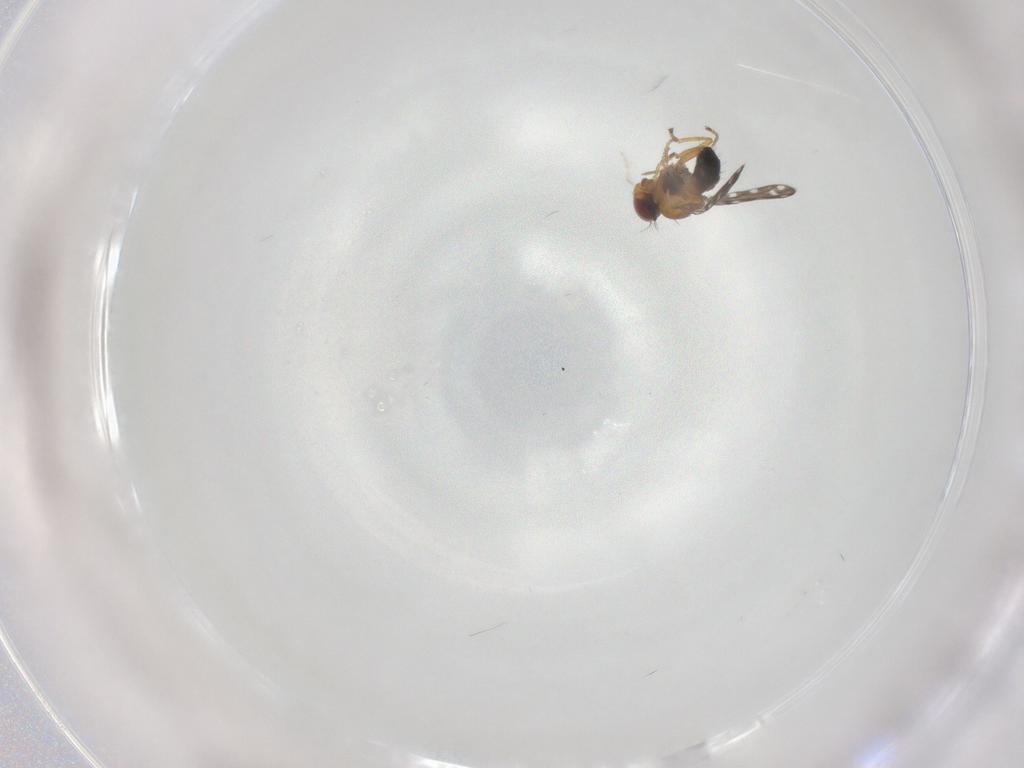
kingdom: Animalia
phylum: Arthropoda
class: Insecta
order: Diptera
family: Ephydridae
